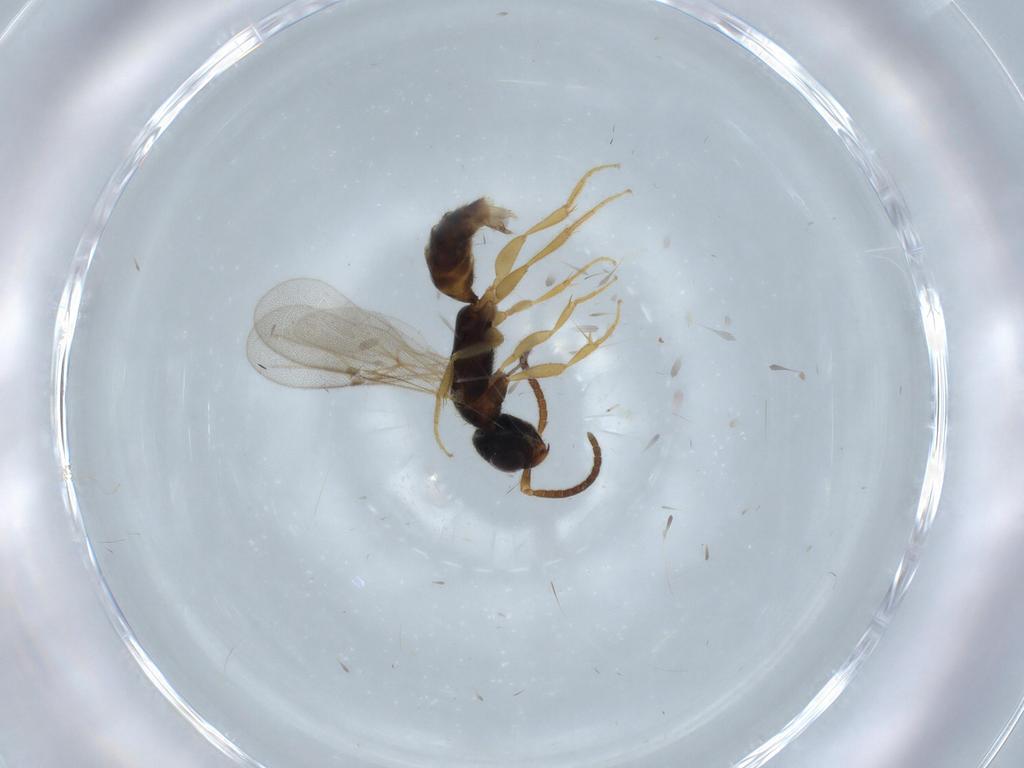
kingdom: Animalia
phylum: Arthropoda
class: Insecta
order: Hymenoptera
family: Bethylidae
